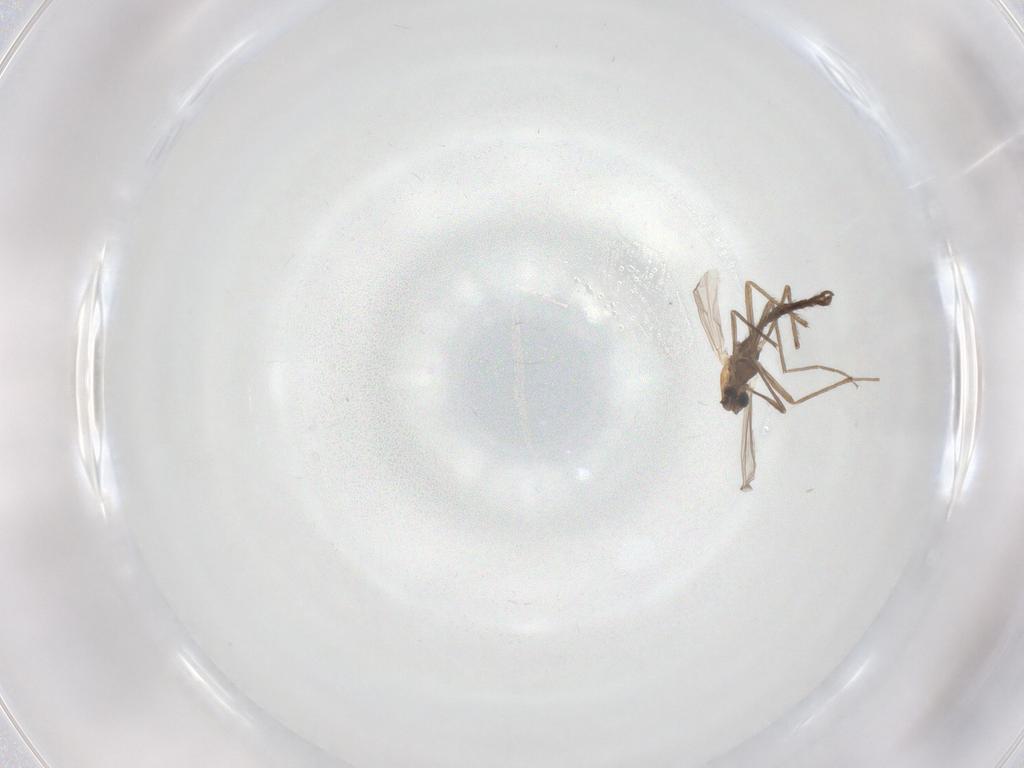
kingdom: Animalia
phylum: Arthropoda
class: Insecta
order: Diptera
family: Chironomidae
